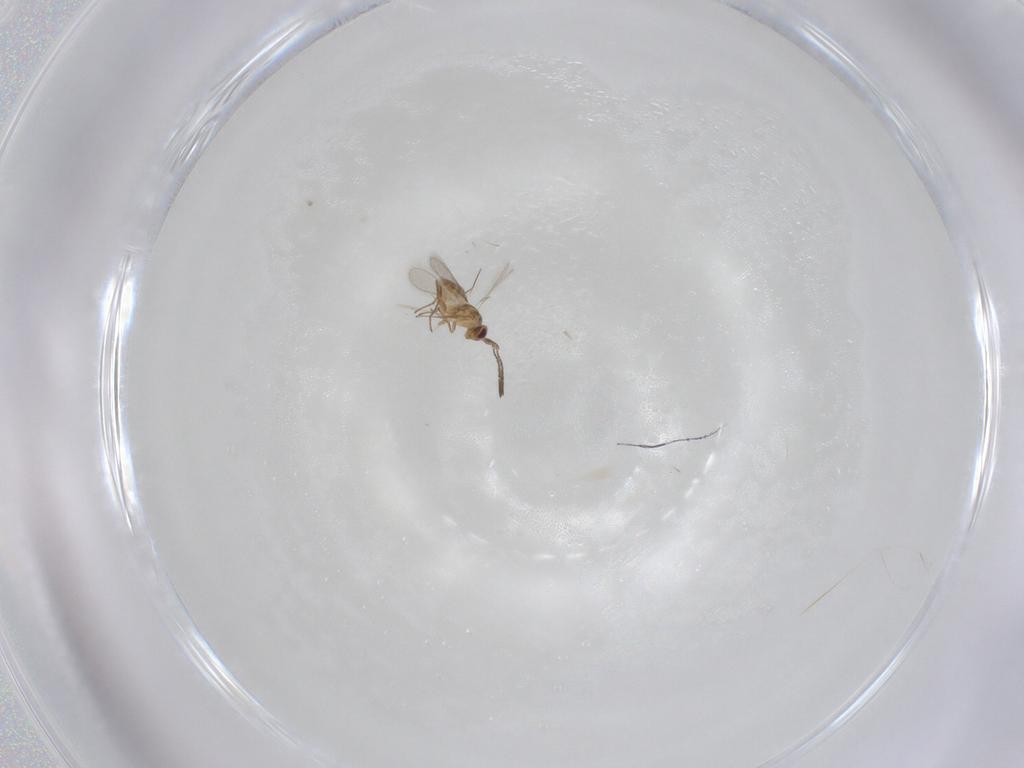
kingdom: Animalia
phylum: Arthropoda
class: Insecta
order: Hymenoptera
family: Mymaridae
